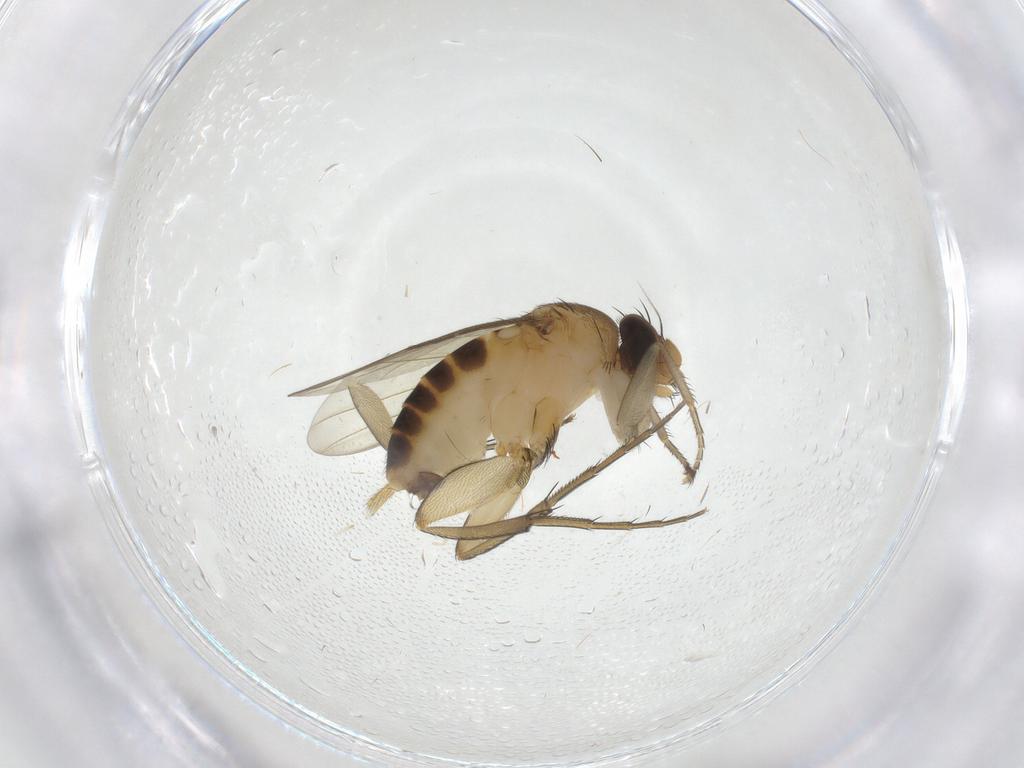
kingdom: Animalia
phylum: Arthropoda
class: Insecta
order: Diptera
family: Phoridae
